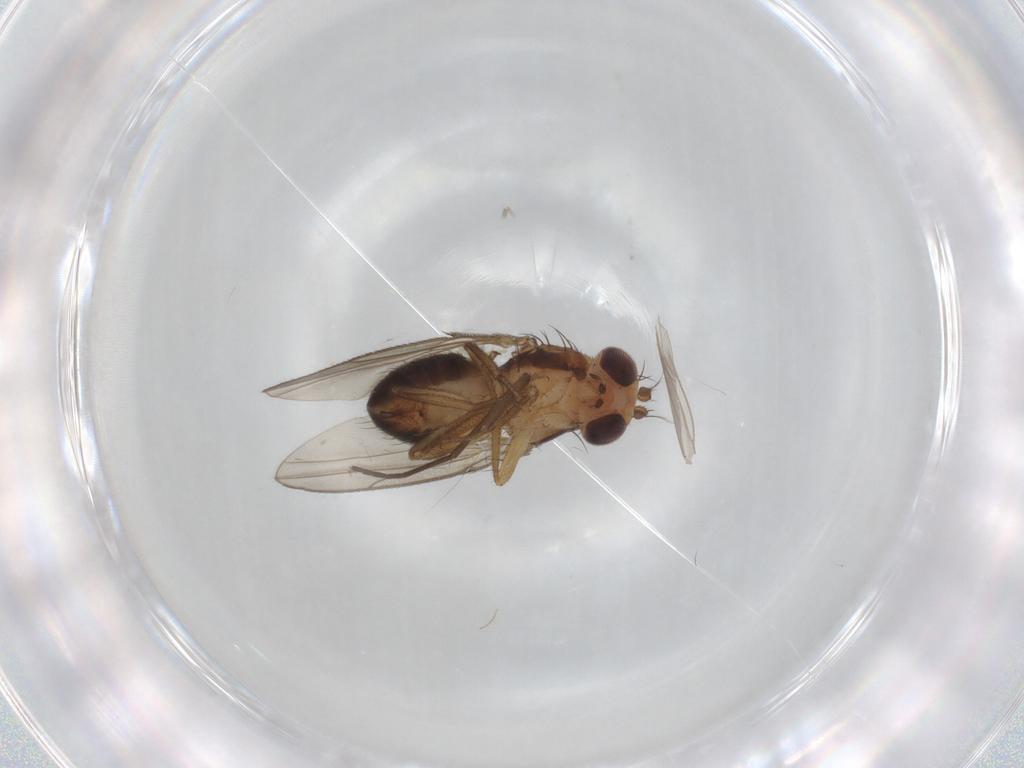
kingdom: Animalia
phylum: Arthropoda
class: Insecta
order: Diptera
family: Drosophilidae
